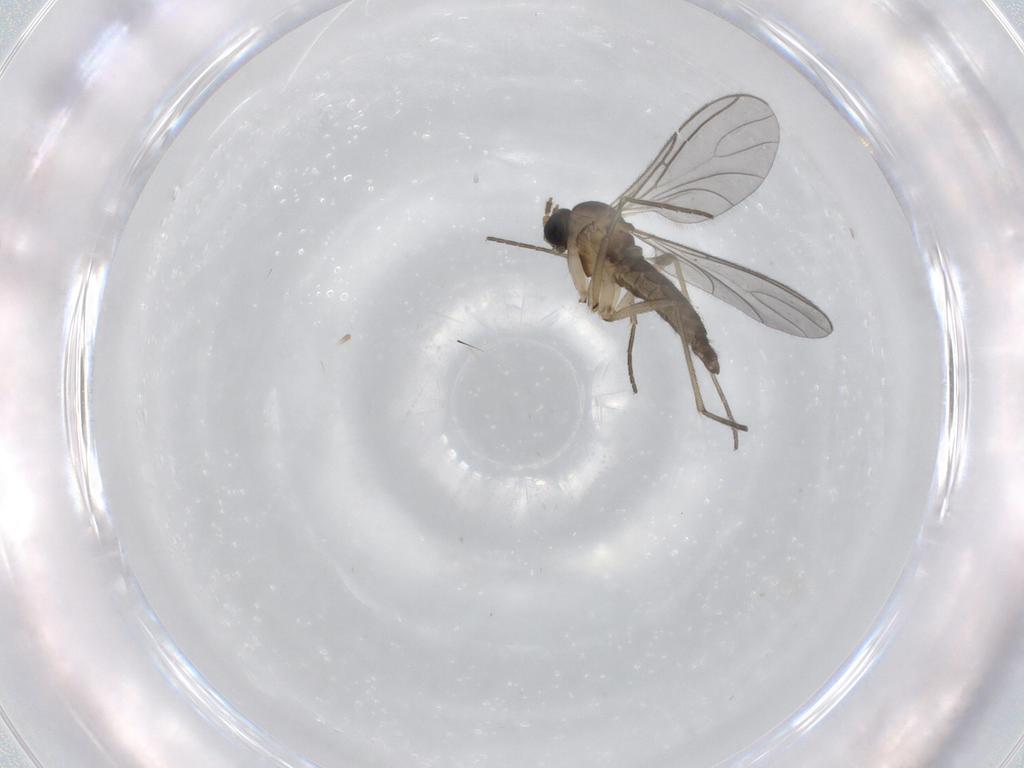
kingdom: Animalia
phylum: Arthropoda
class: Insecta
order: Diptera
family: Sciaridae
